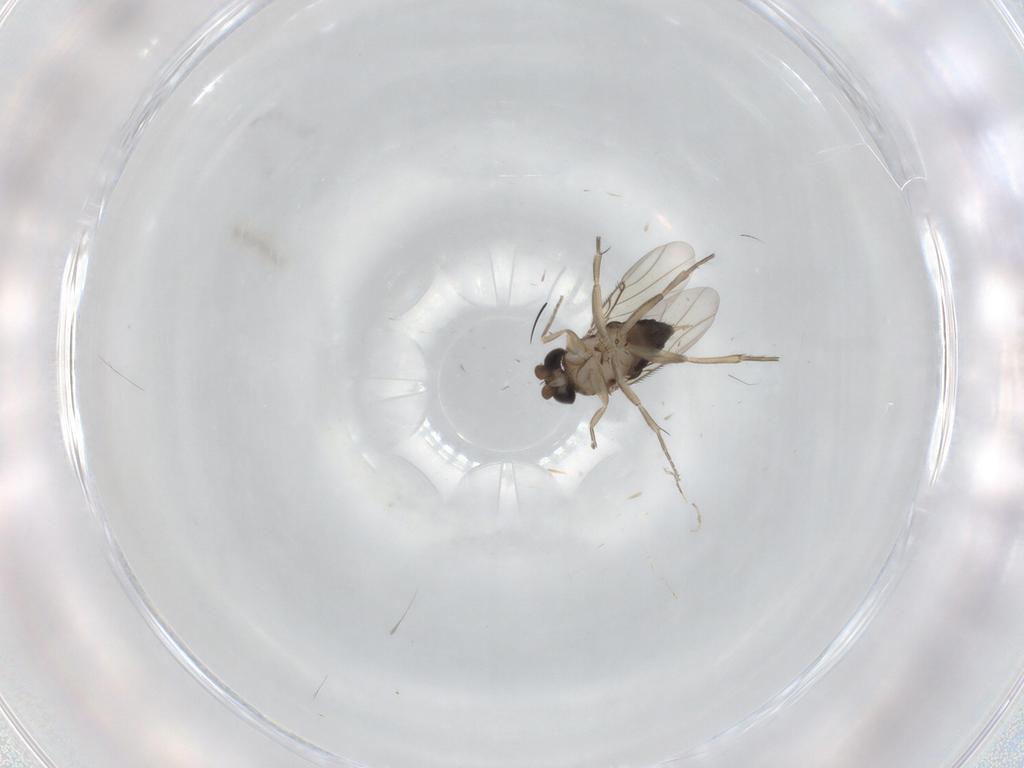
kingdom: Animalia
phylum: Arthropoda
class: Insecta
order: Diptera
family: Phoridae
